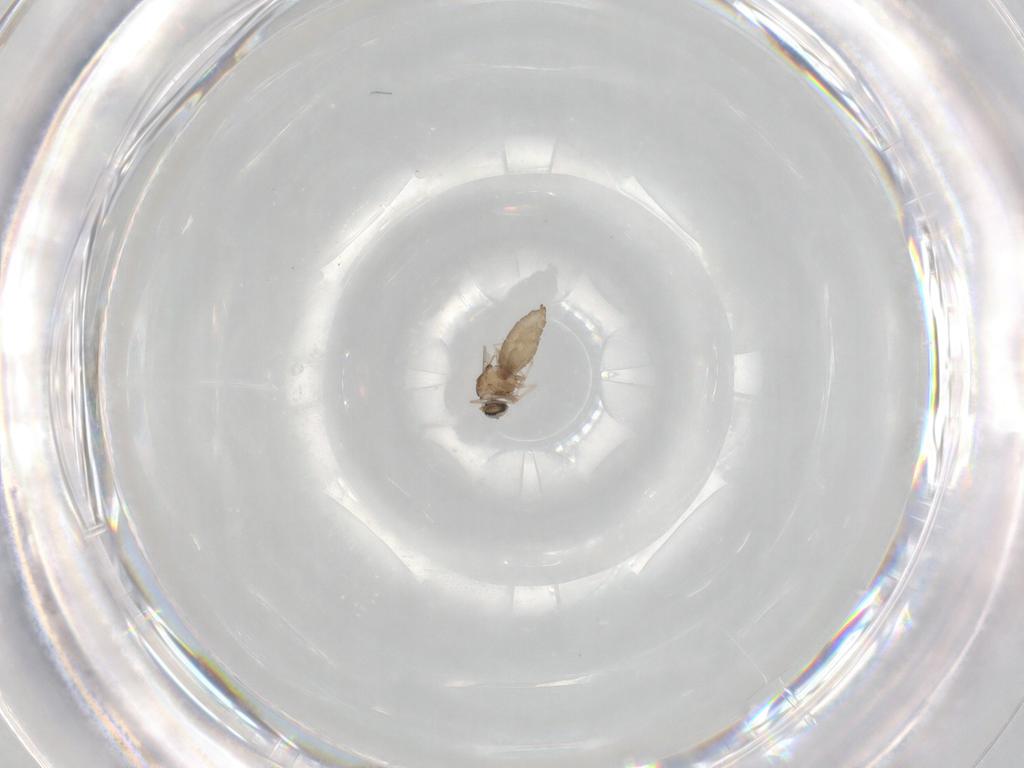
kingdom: Animalia
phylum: Arthropoda
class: Insecta
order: Diptera
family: Cecidomyiidae
